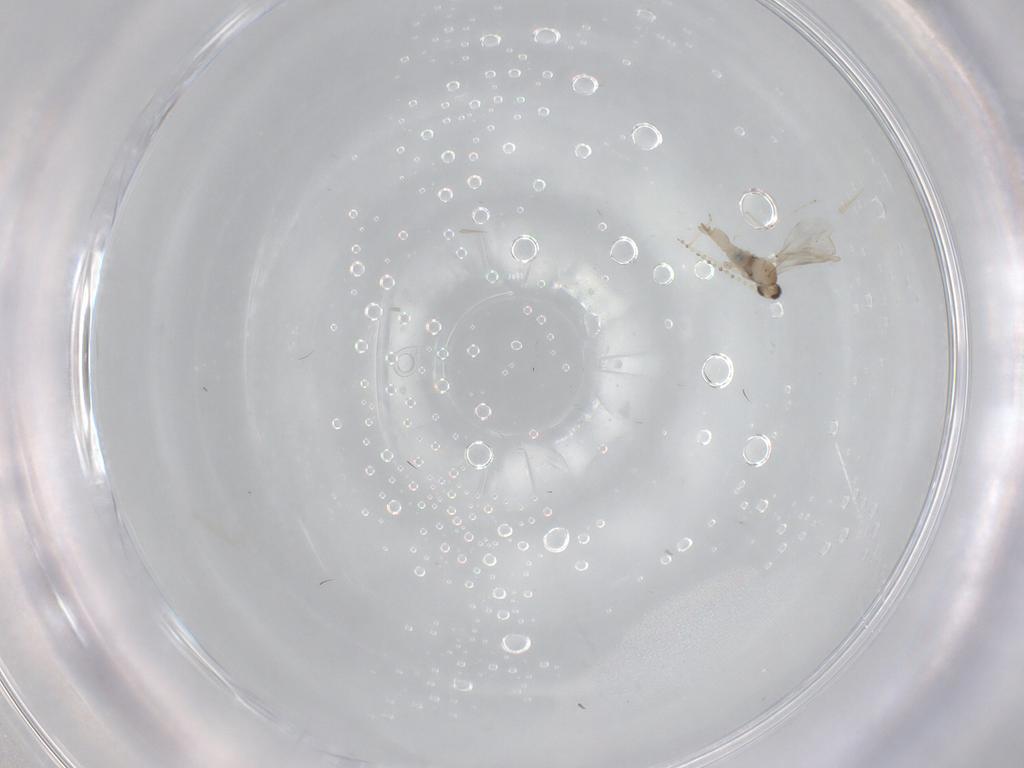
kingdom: Animalia
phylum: Arthropoda
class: Insecta
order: Diptera
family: Cecidomyiidae
